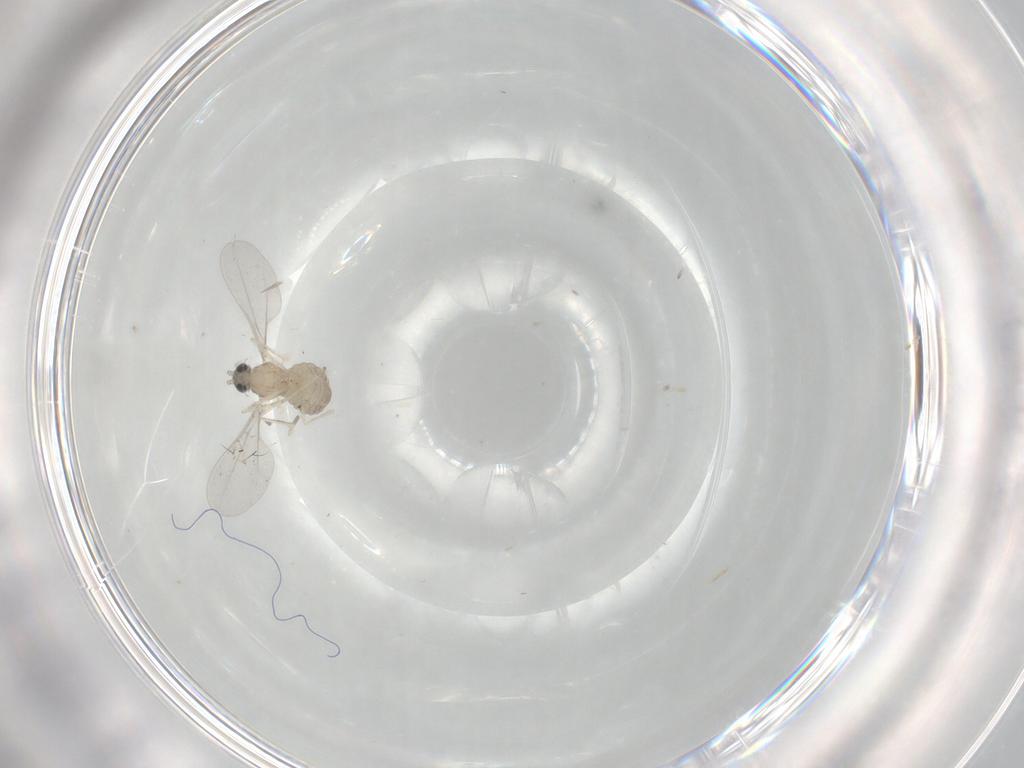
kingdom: Animalia
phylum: Arthropoda
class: Insecta
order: Diptera
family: Cecidomyiidae
